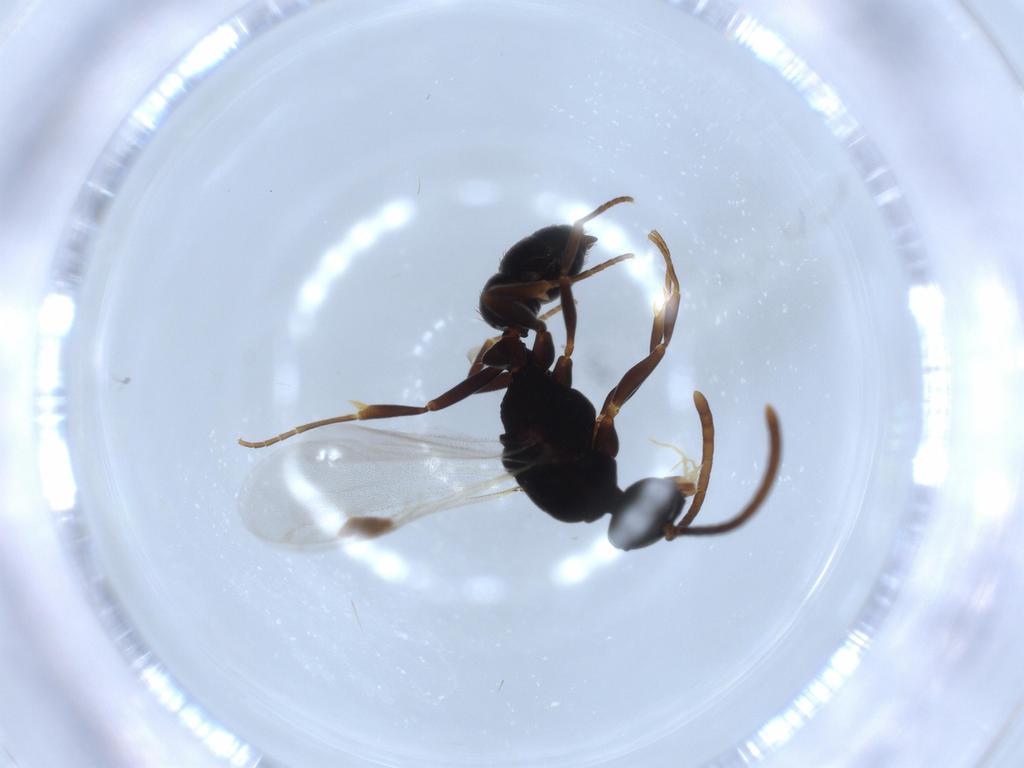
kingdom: Animalia
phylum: Arthropoda
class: Insecta
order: Hymenoptera
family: Formicidae
